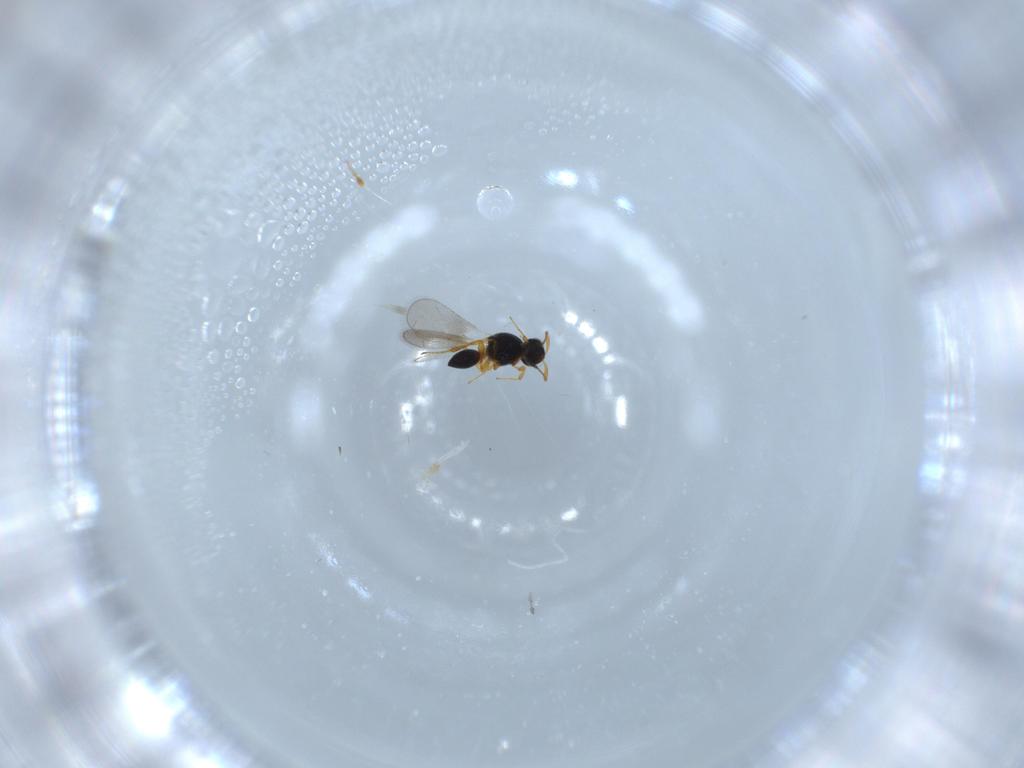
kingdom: Animalia
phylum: Arthropoda
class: Insecta
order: Hymenoptera
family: Platygastridae
